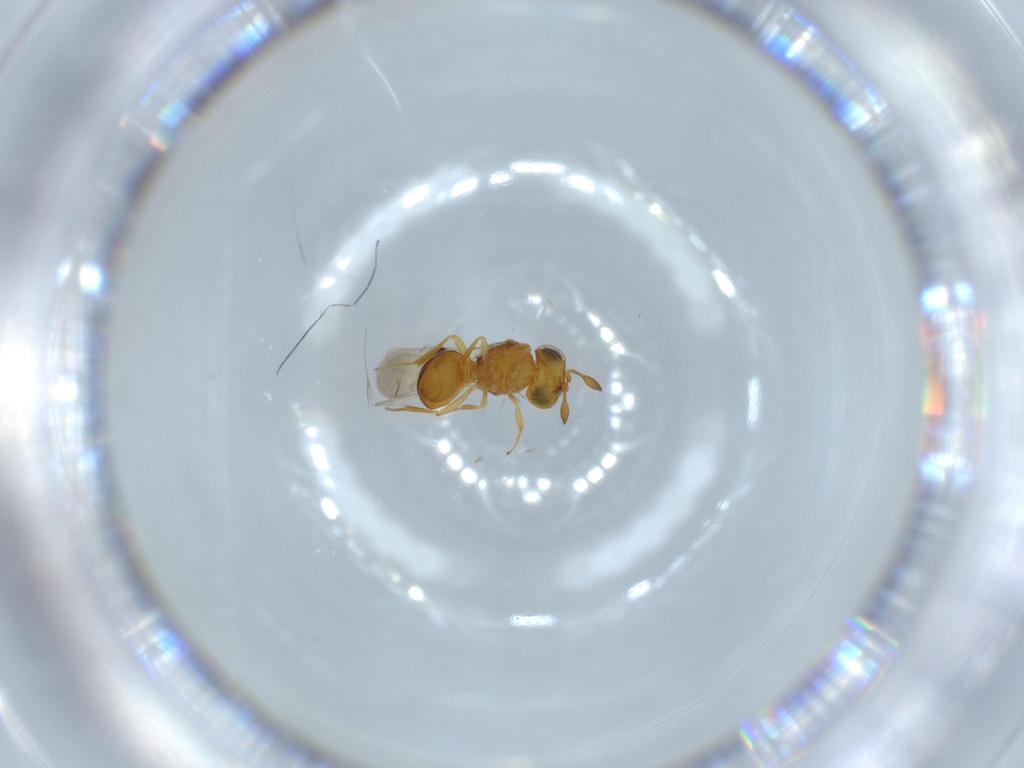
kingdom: Animalia
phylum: Arthropoda
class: Insecta
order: Hymenoptera
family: Scelionidae
